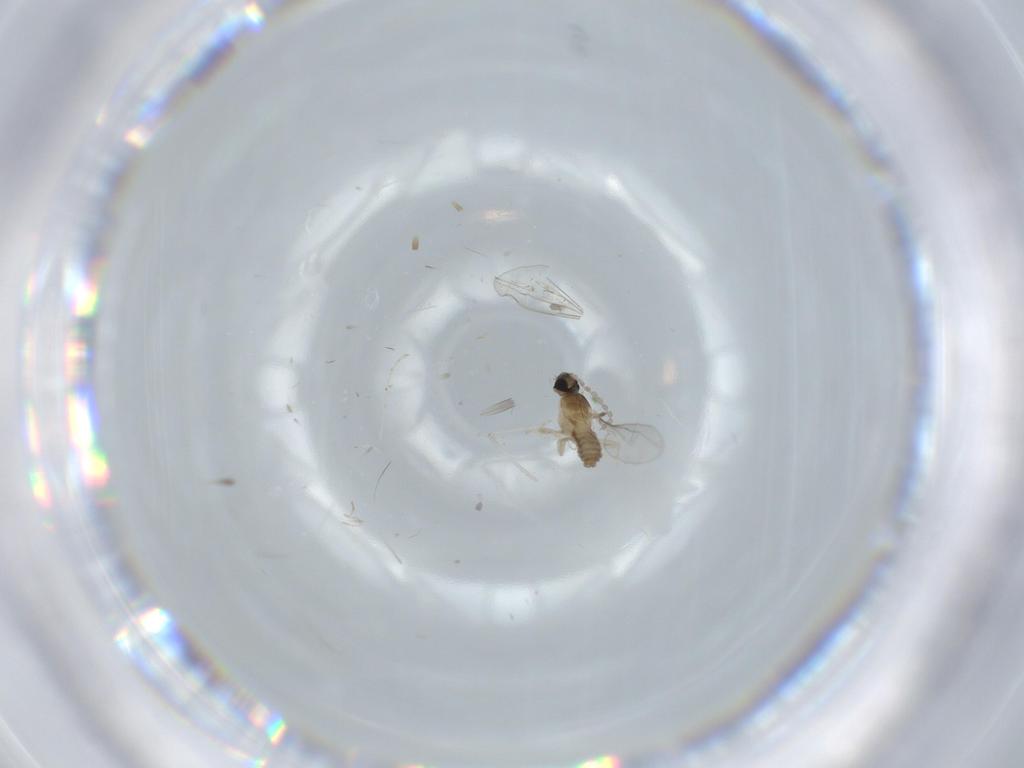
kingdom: Animalia
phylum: Arthropoda
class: Insecta
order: Diptera
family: Cecidomyiidae
